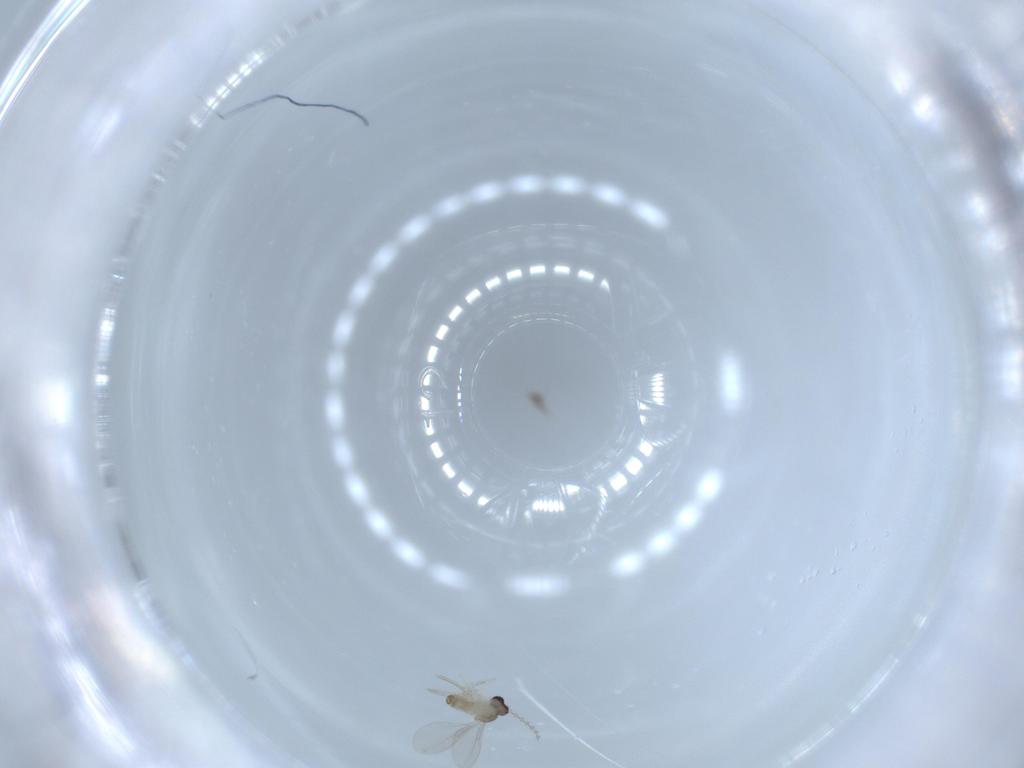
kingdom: Animalia
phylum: Arthropoda
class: Insecta
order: Diptera
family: Cecidomyiidae
